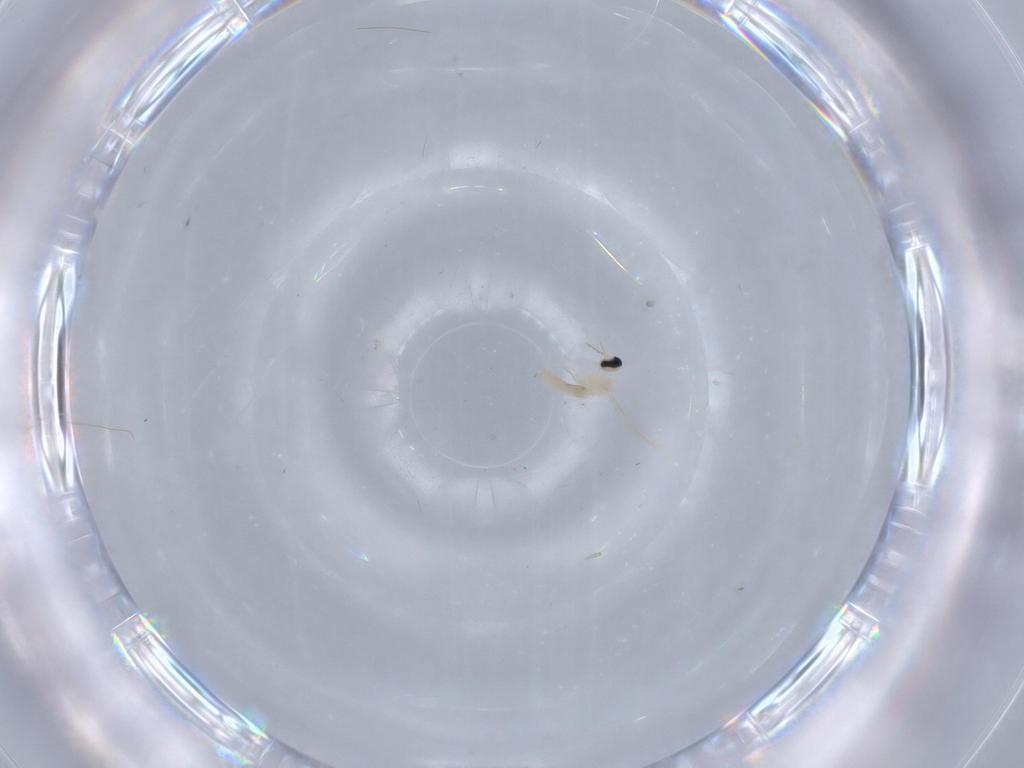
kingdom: Animalia
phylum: Arthropoda
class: Insecta
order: Diptera
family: Cecidomyiidae
